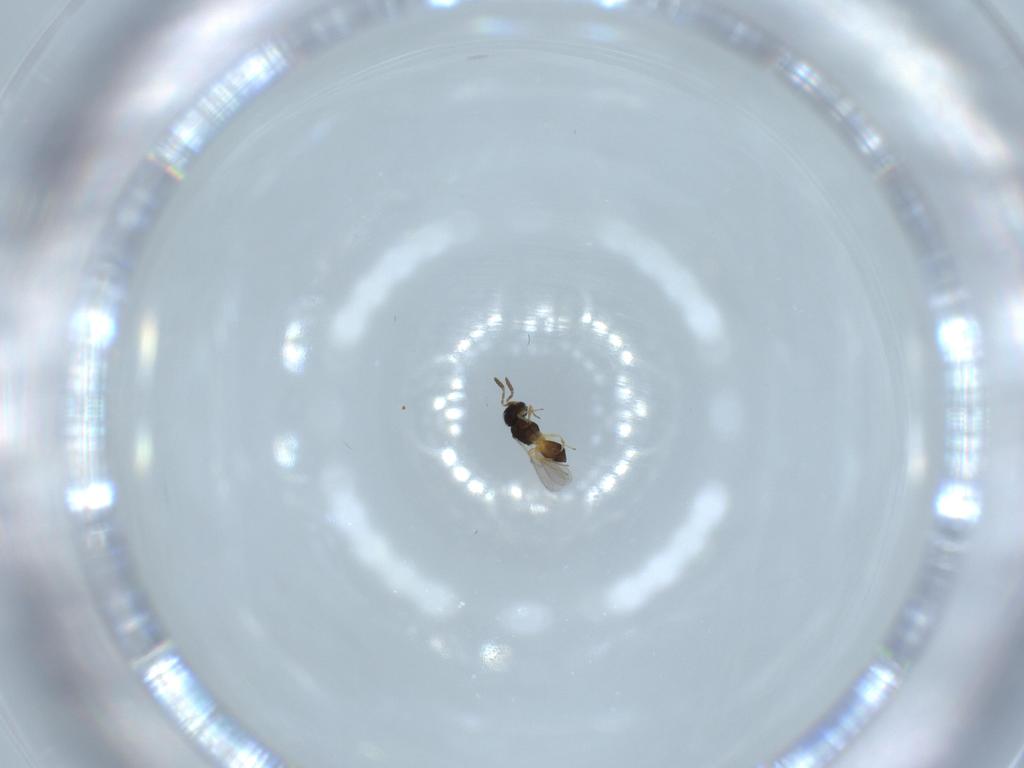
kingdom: Animalia
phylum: Arthropoda
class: Insecta
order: Hymenoptera
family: Scelionidae
